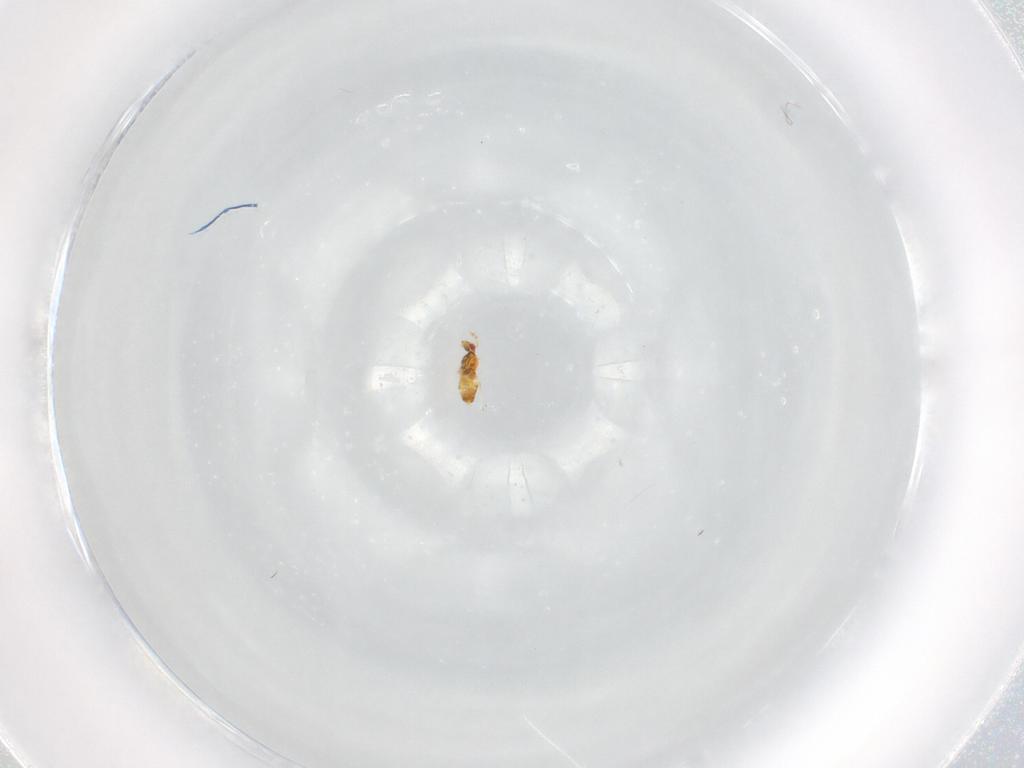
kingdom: Animalia
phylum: Arthropoda
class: Insecta
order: Hymenoptera
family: Trichogrammatidae
